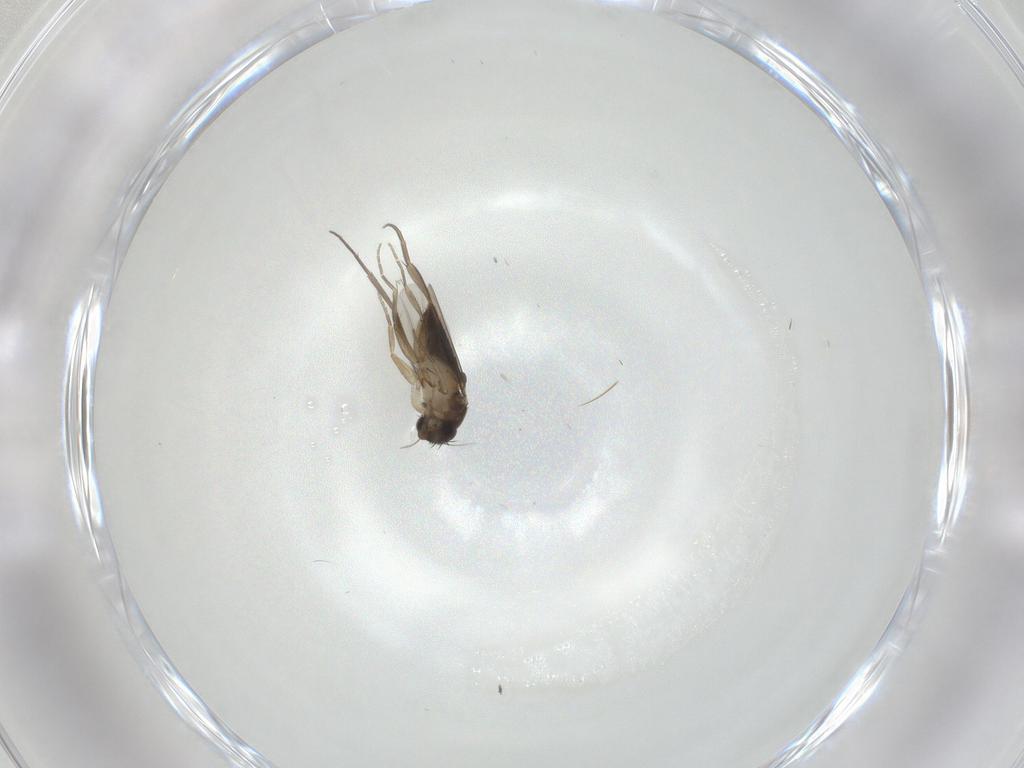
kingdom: Animalia
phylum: Arthropoda
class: Insecta
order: Diptera
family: Phoridae
